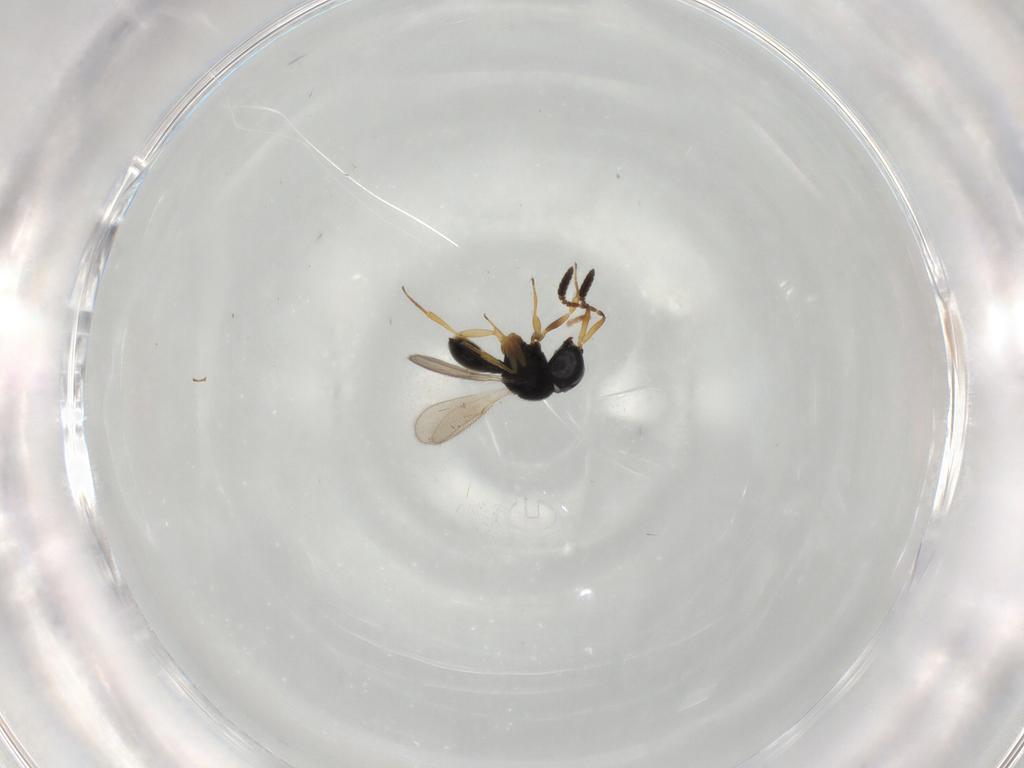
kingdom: Animalia
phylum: Arthropoda
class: Insecta
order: Hymenoptera
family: Scelionidae
